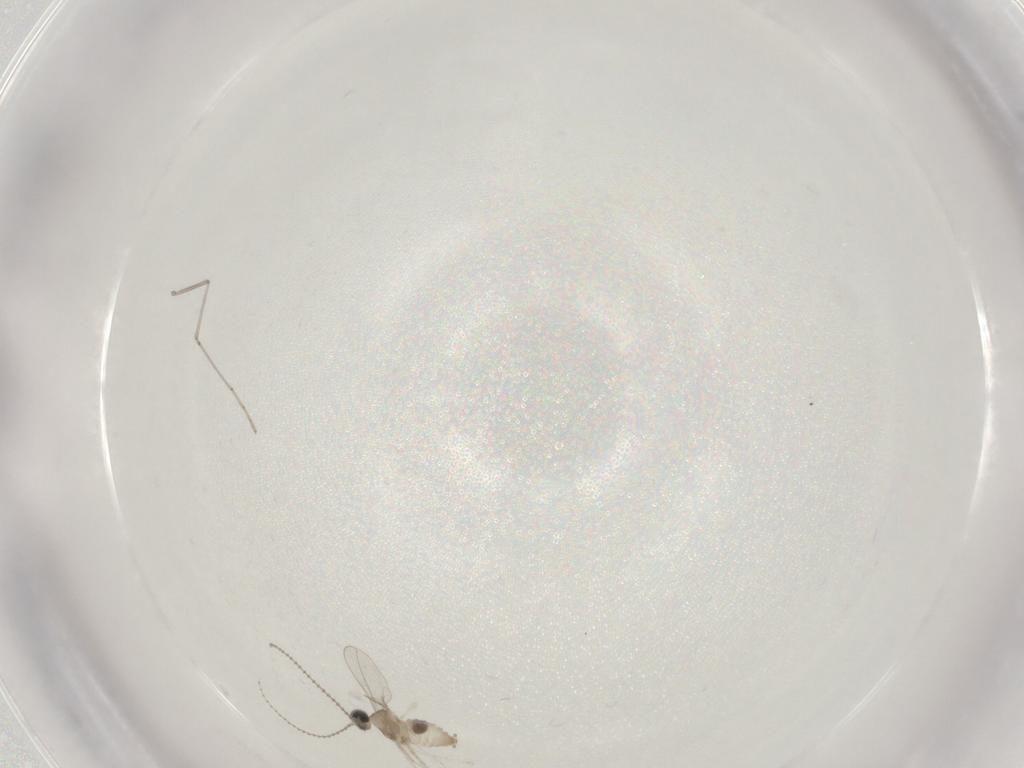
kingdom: Animalia
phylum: Arthropoda
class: Insecta
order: Diptera
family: Cecidomyiidae
